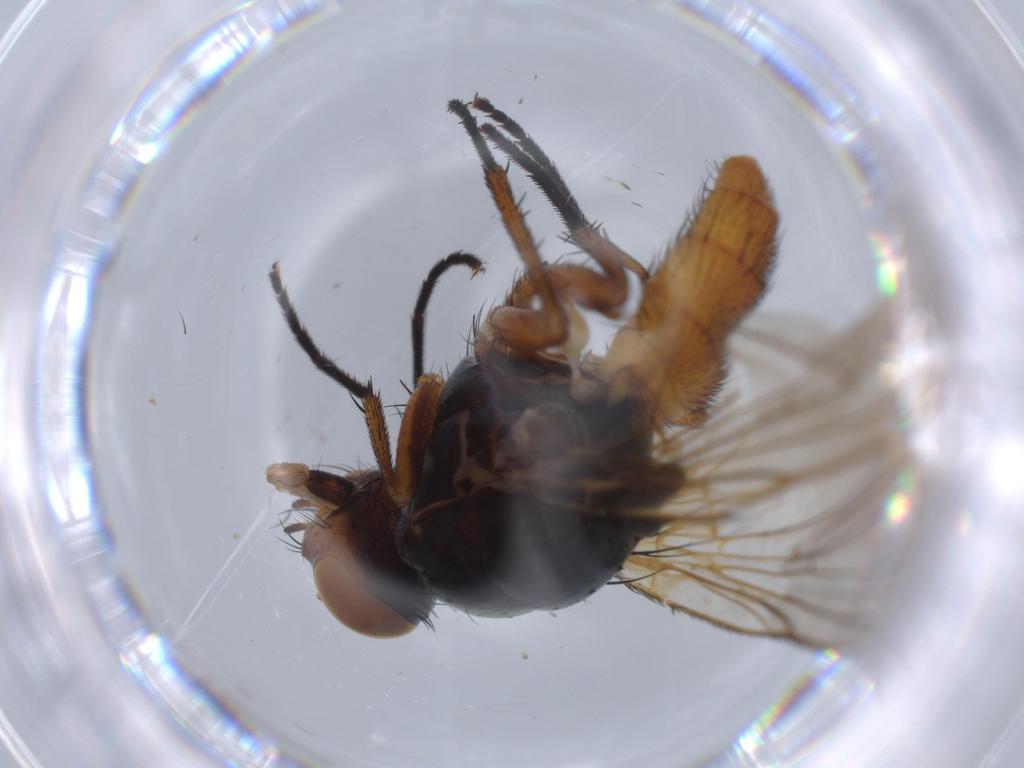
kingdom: Animalia
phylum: Arthropoda
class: Insecta
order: Diptera
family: Anthomyiidae
